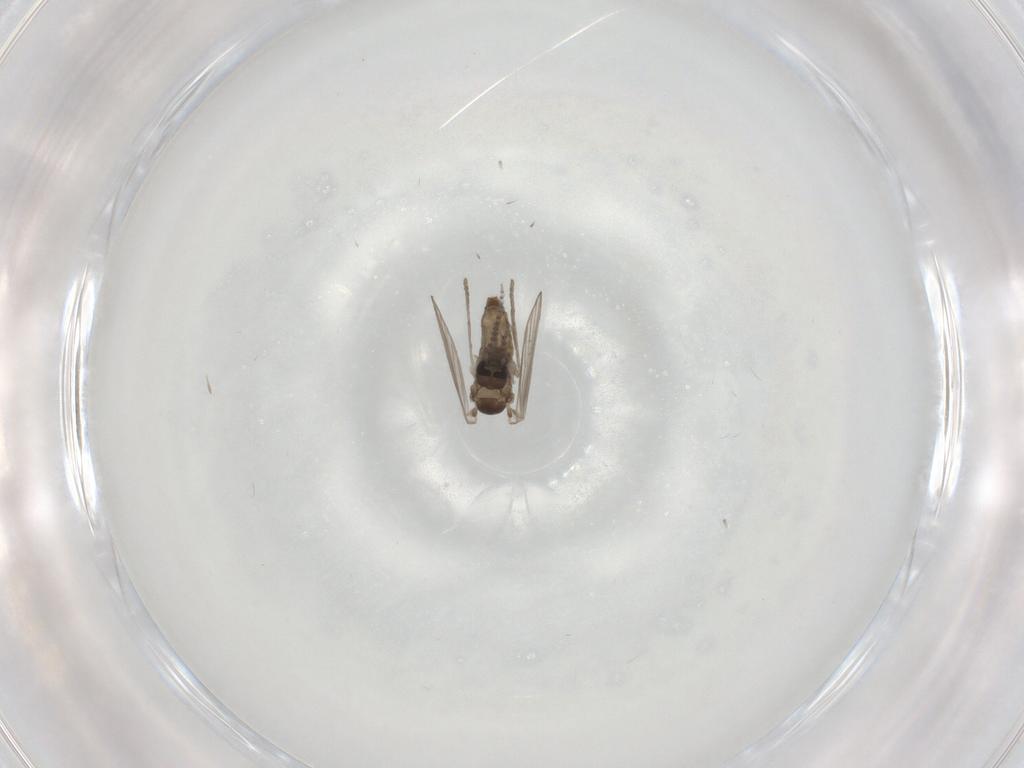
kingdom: Animalia
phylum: Arthropoda
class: Insecta
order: Diptera
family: Psychodidae
